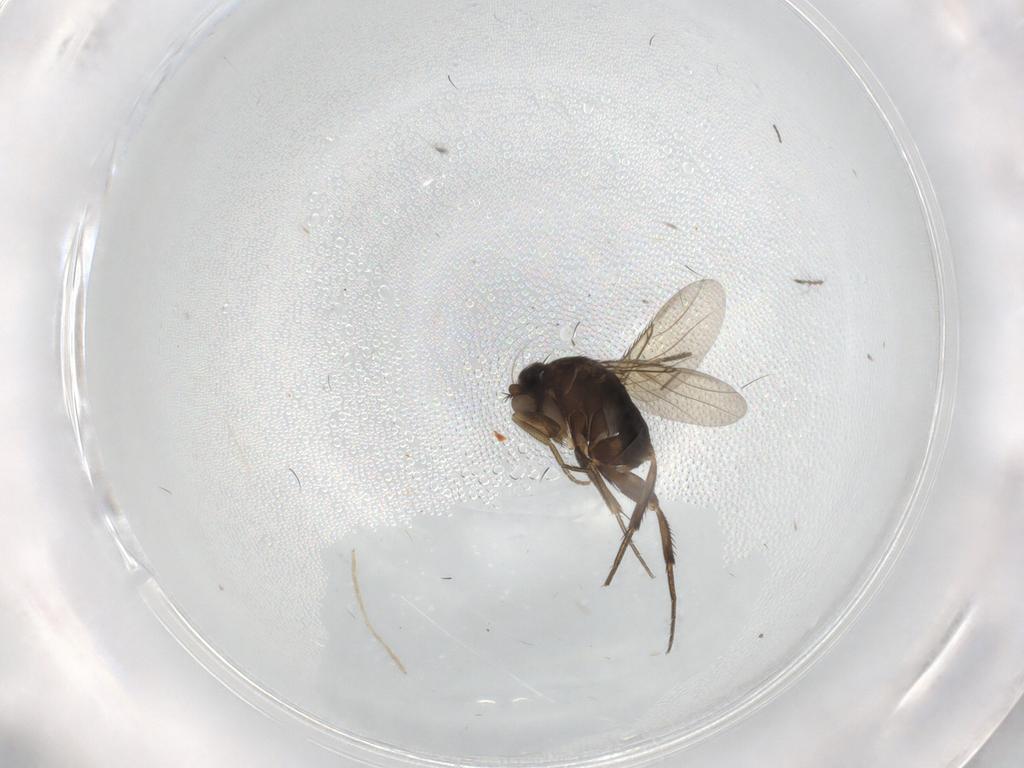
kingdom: Animalia
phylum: Arthropoda
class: Insecta
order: Diptera
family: Phoridae
